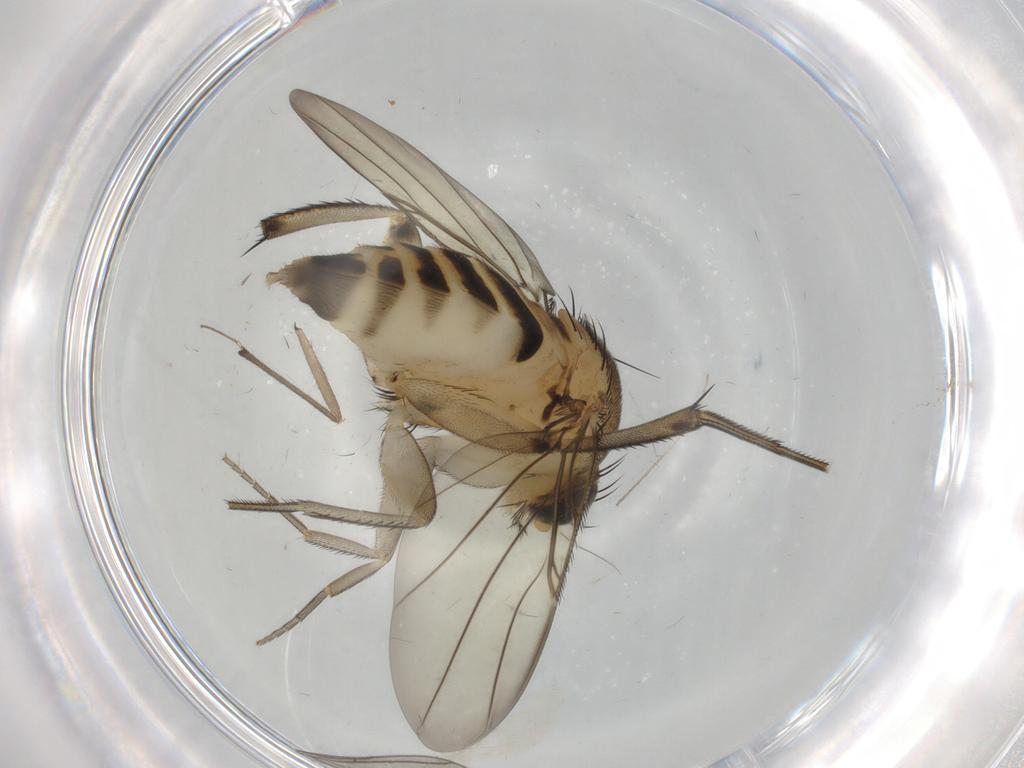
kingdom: Animalia
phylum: Arthropoda
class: Insecta
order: Diptera
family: Phoridae
